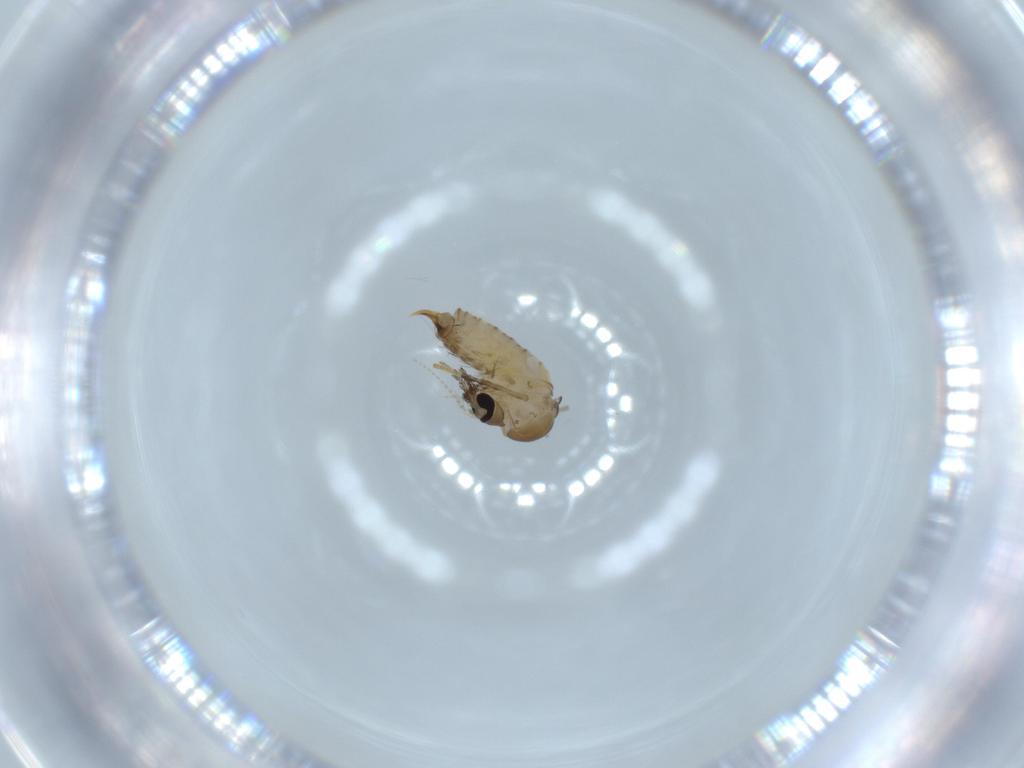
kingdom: Animalia
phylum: Arthropoda
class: Insecta
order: Diptera
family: Psychodidae
